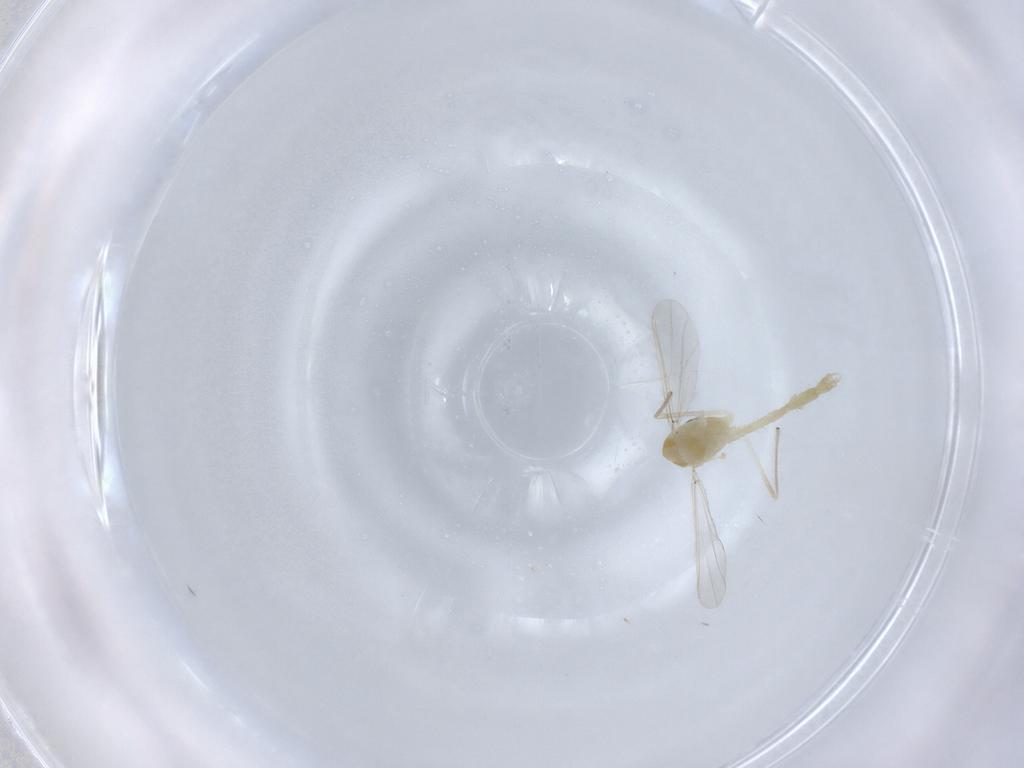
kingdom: Animalia
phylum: Arthropoda
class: Insecta
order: Diptera
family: Chironomidae
